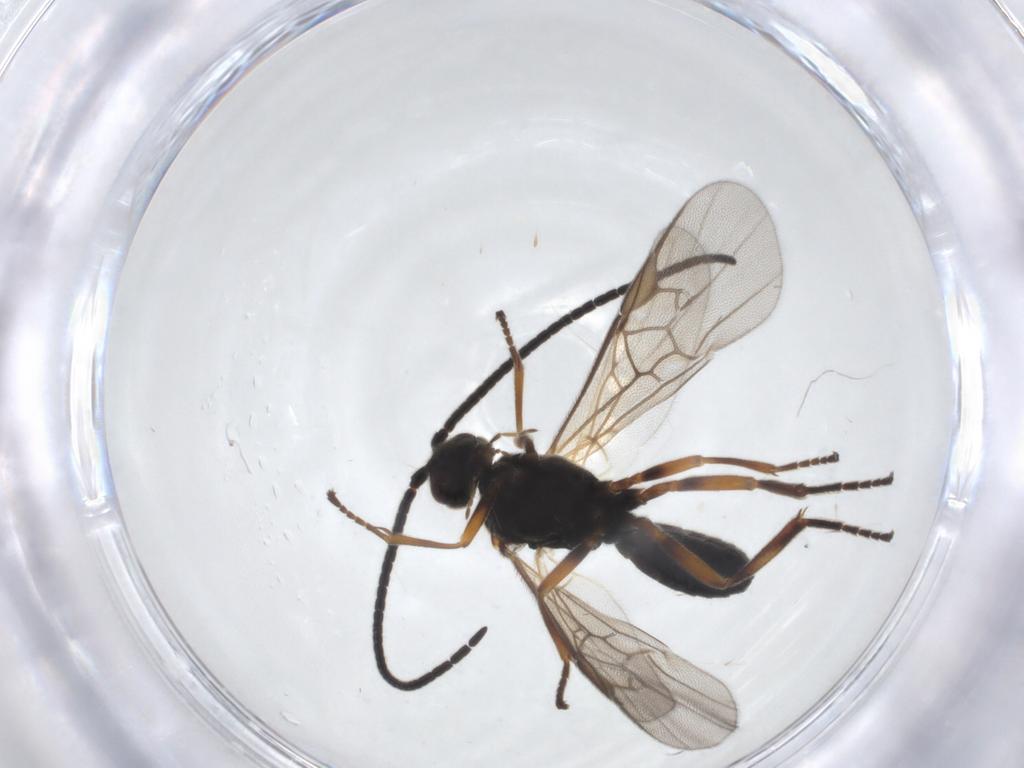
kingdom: Animalia
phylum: Arthropoda
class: Insecta
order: Hymenoptera
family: Braconidae
